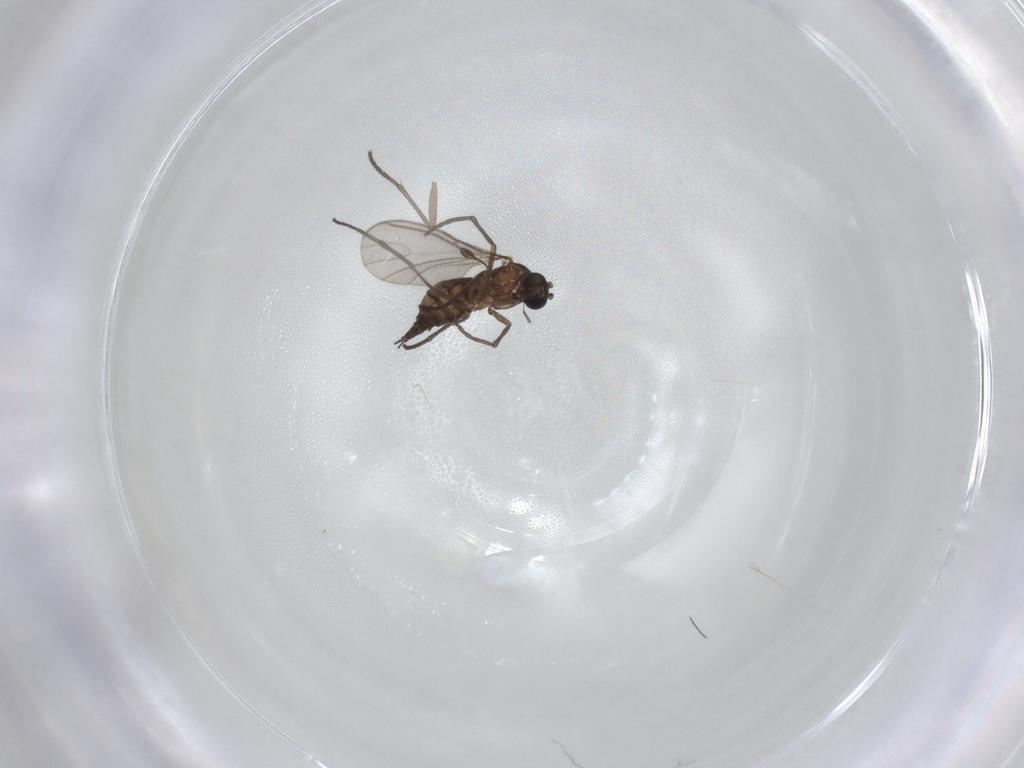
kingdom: Animalia
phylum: Arthropoda
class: Insecta
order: Diptera
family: Sciaridae
